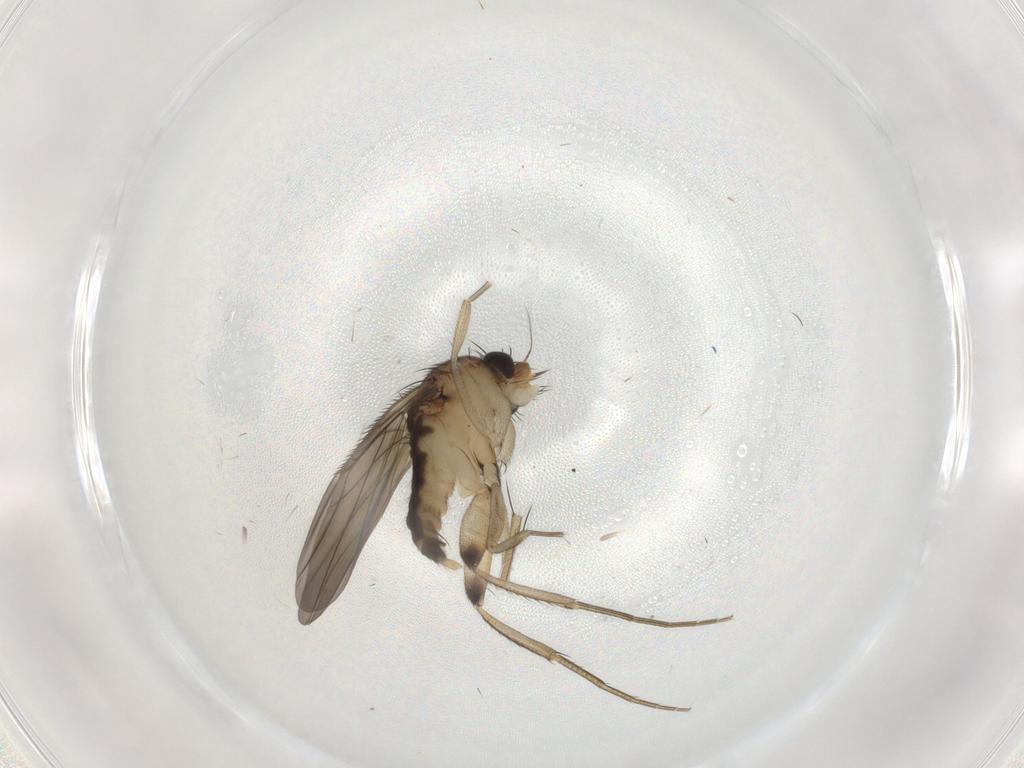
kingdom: Animalia
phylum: Arthropoda
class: Insecta
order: Diptera
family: Phoridae
